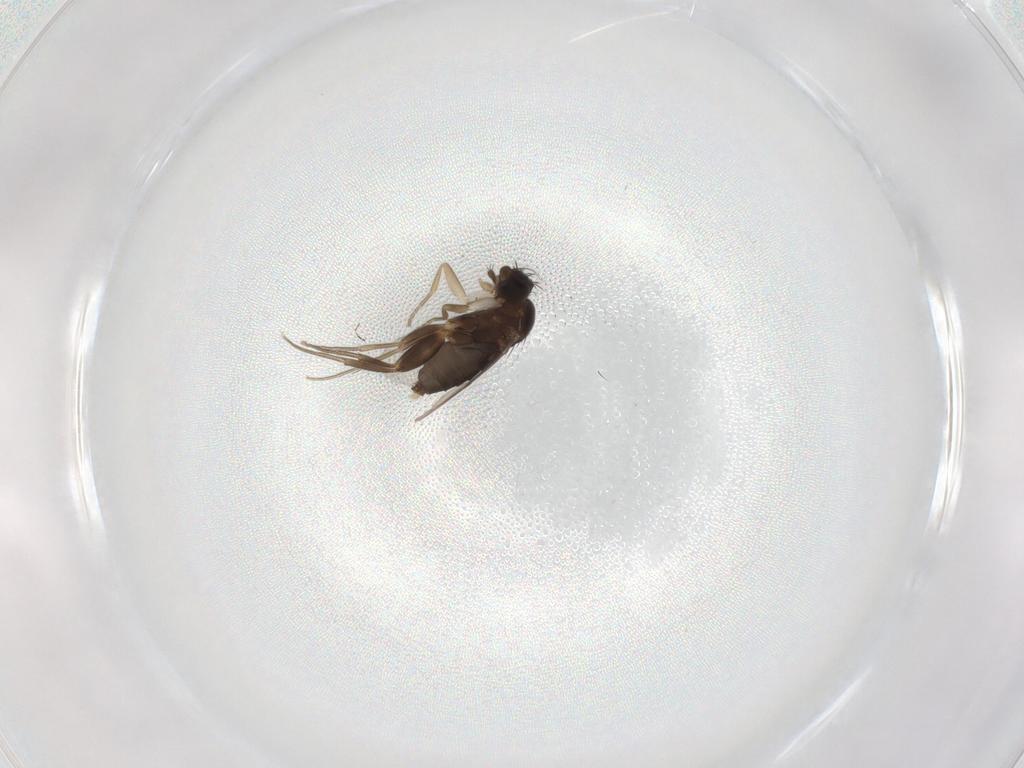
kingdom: Animalia
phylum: Arthropoda
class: Insecta
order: Diptera
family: Phoridae
